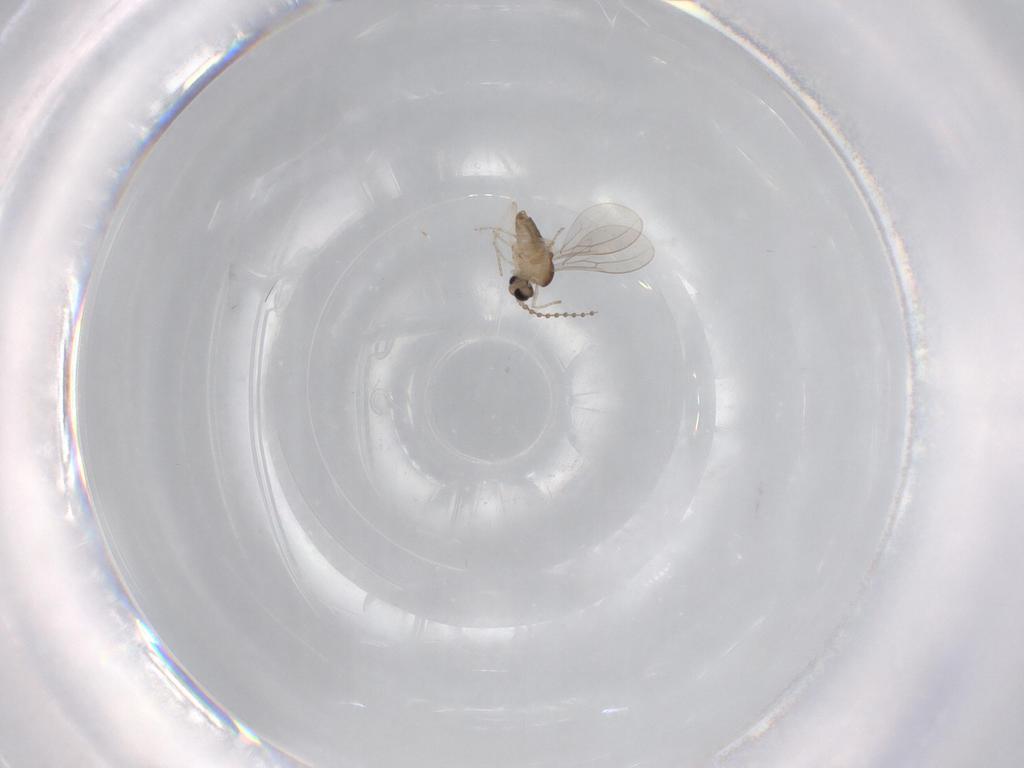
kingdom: Animalia
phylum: Arthropoda
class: Insecta
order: Diptera
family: Cecidomyiidae
